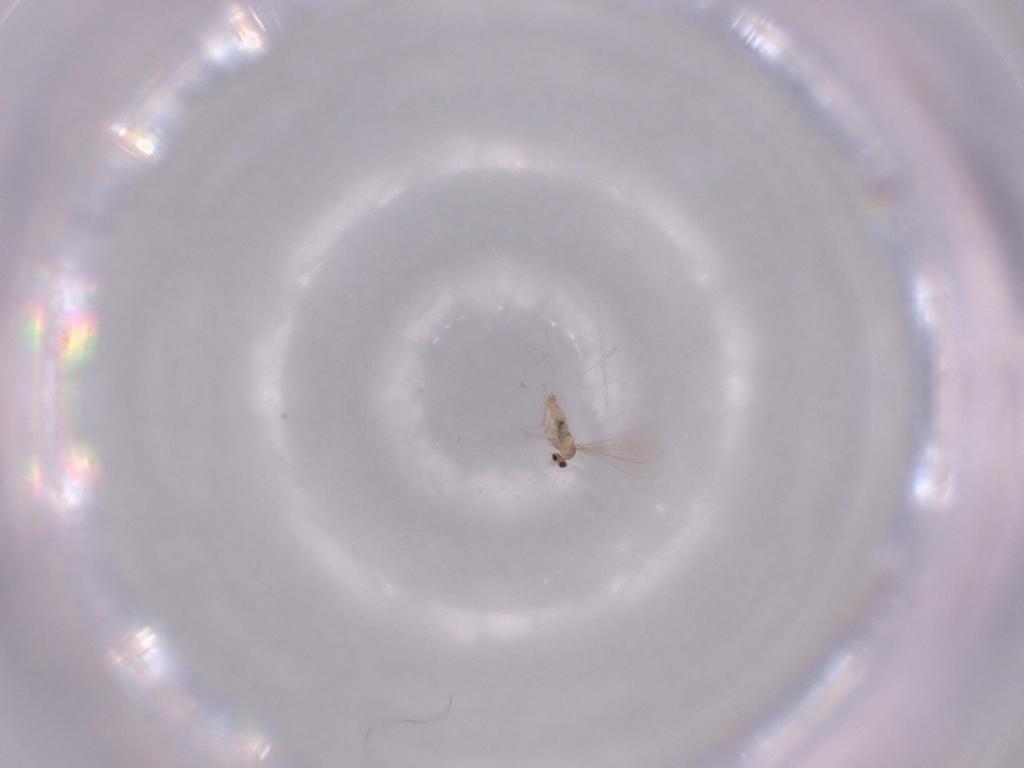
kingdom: Animalia
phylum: Arthropoda
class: Insecta
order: Diptera
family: Cecidomyiidae
